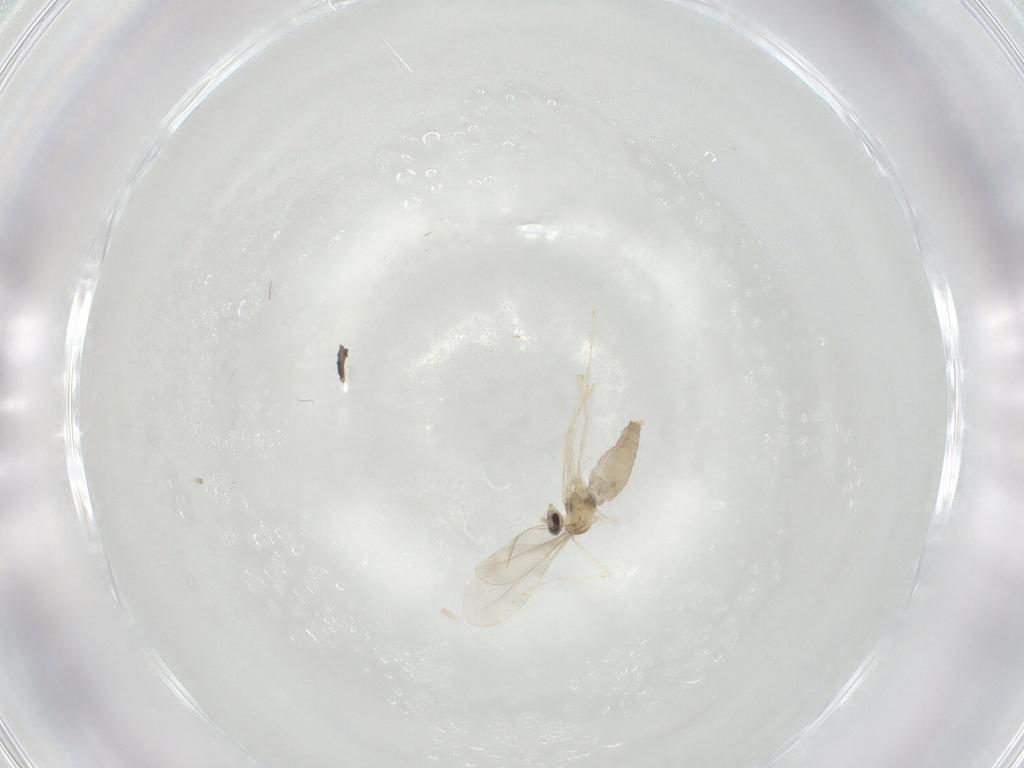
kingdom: Animalia
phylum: Arthropoda
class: Insecta
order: Diptera
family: Cecidomyiidae
